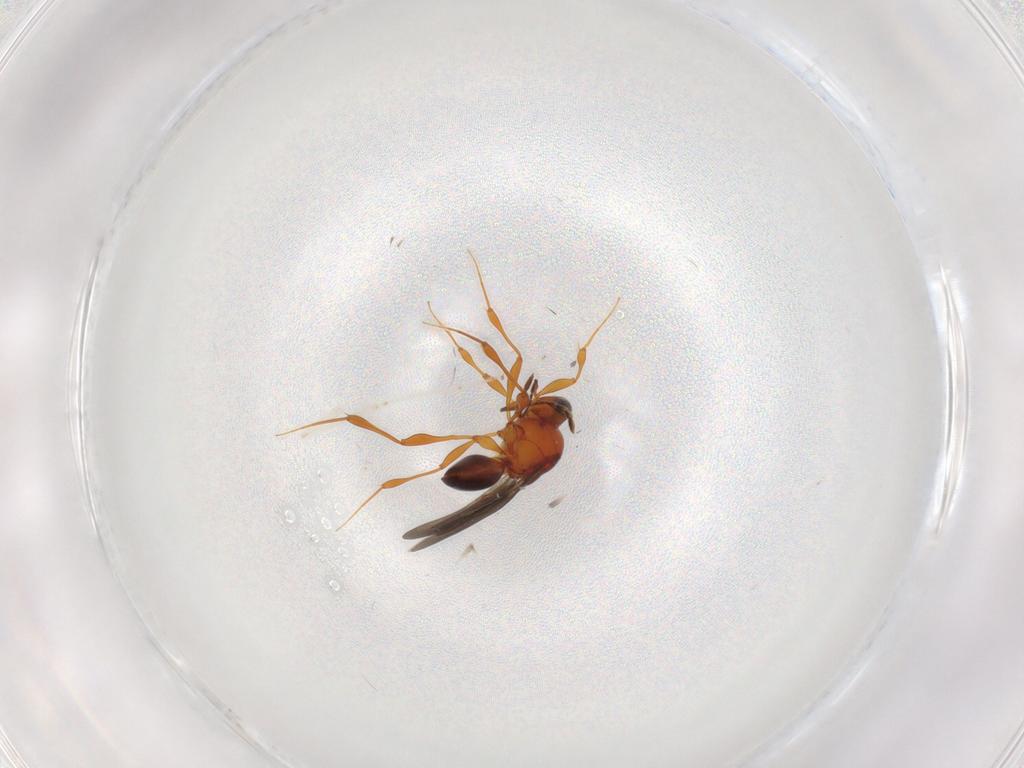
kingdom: Animalia
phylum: Arthropoda
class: Insecta
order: Hymenoptera
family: Platygastridae
